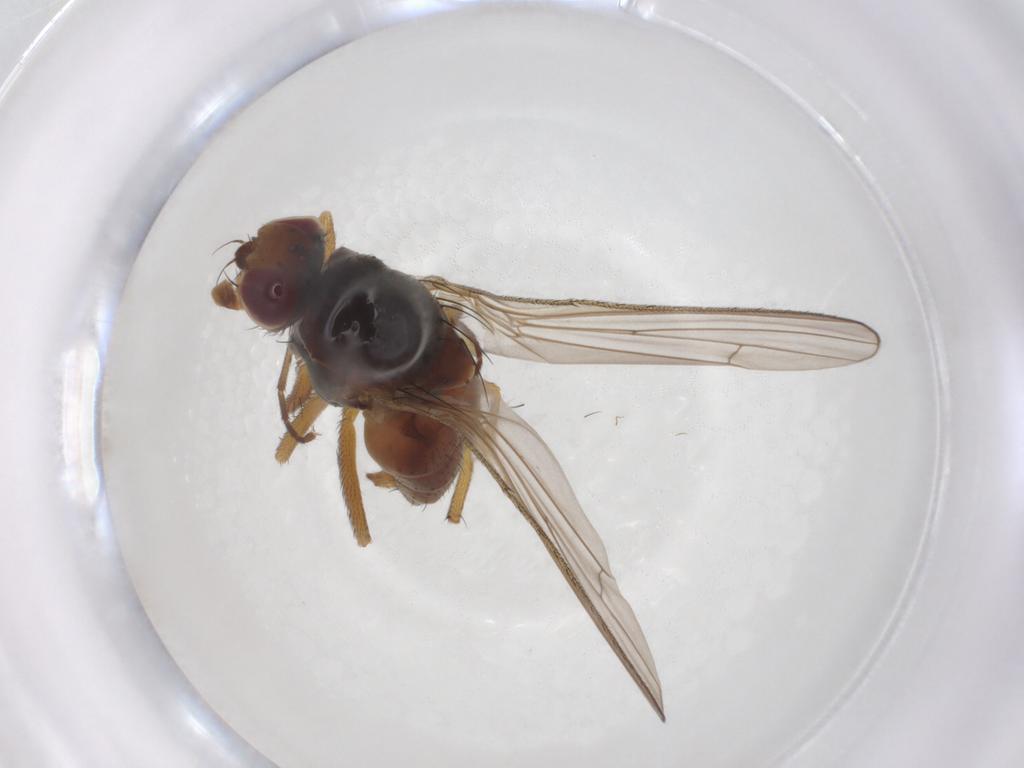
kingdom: Animalia
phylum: Arthropoda
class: Insecta
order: Diptera
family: Heleomyzidae
